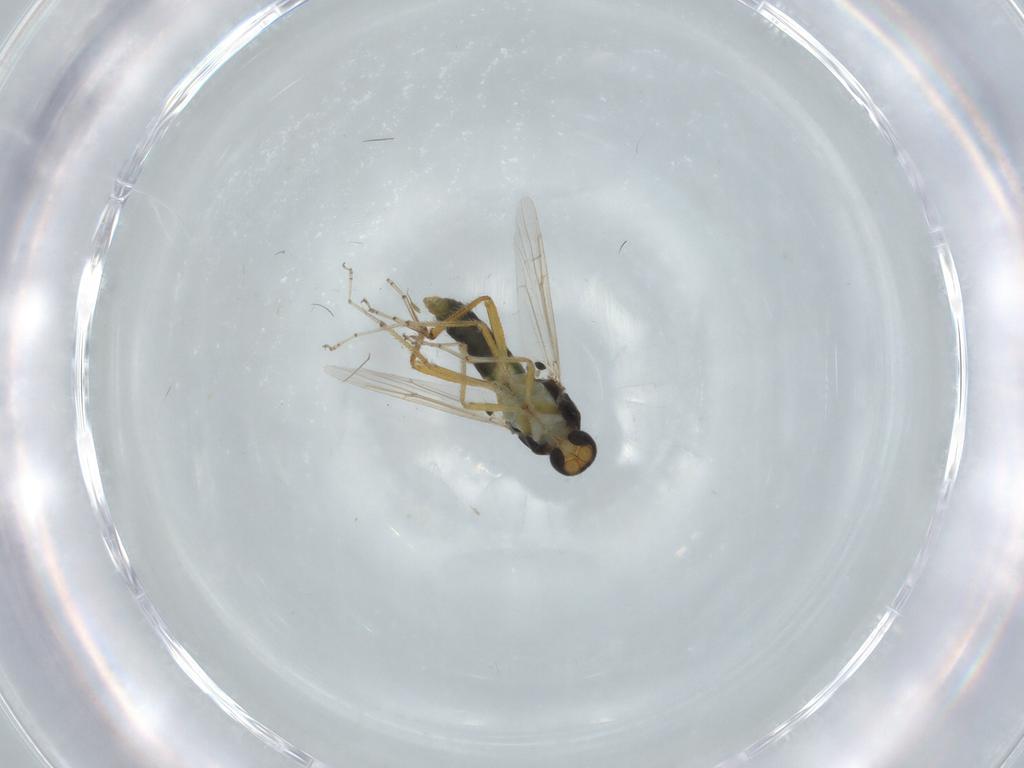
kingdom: Animalia
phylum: Arthropoda
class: Insecta
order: Diptera
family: Ceratopogonidae
